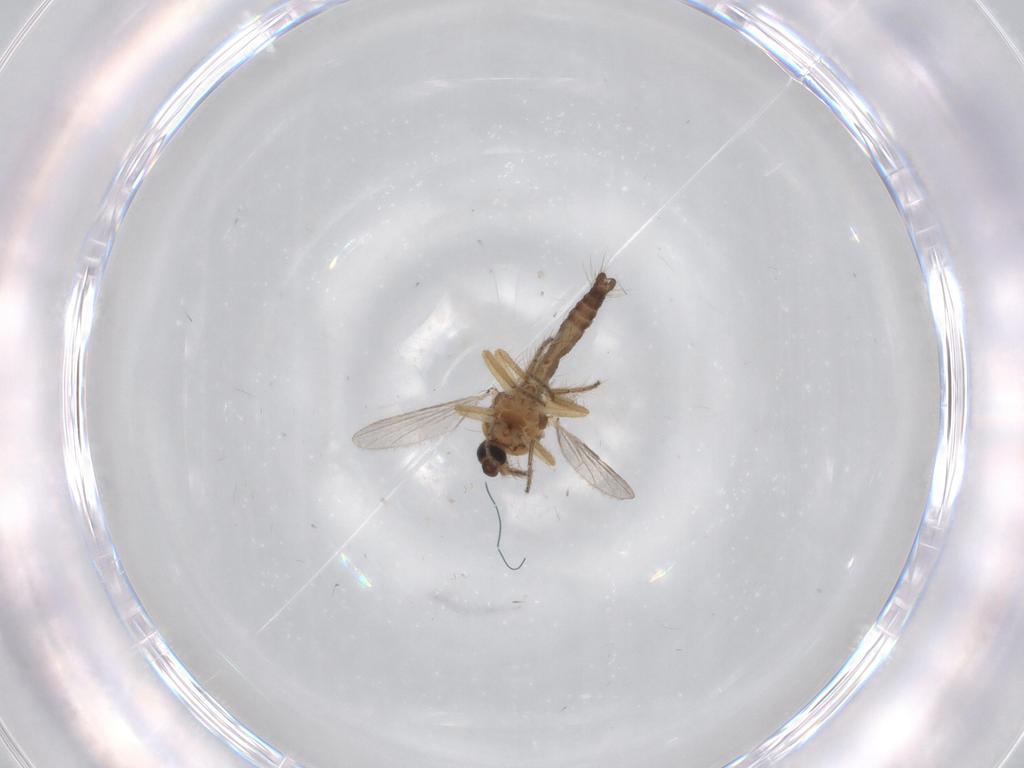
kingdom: Animalia
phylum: Arthropoda
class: Insecta
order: Diptera
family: Ceratopogonidae
